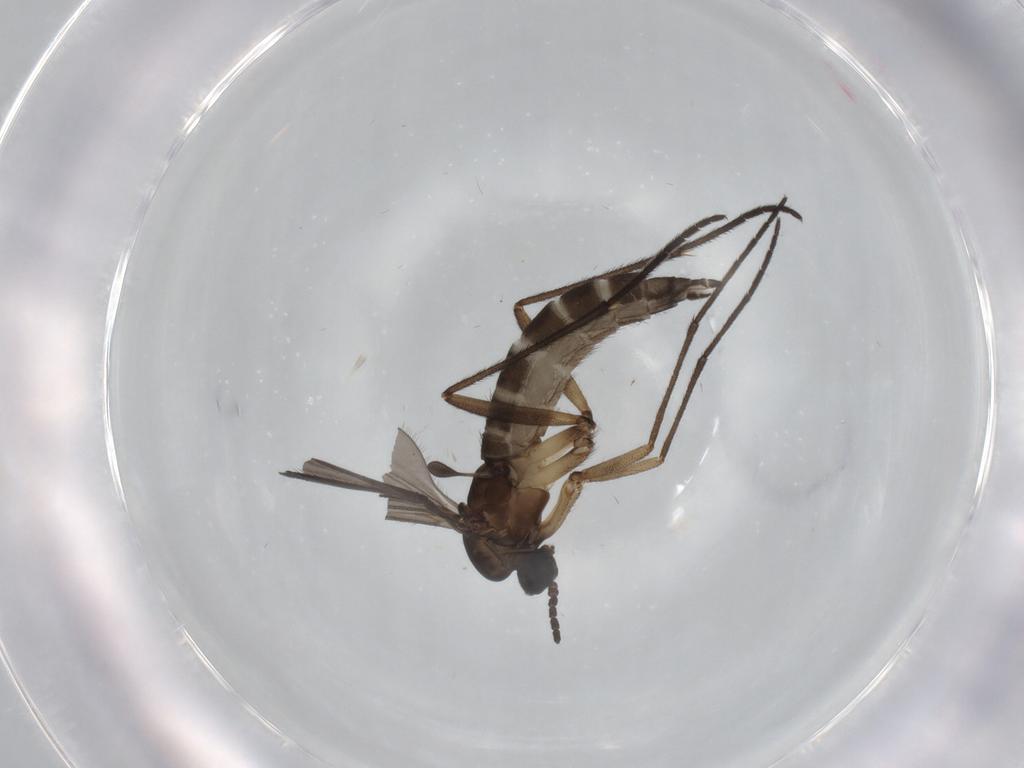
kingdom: Animalia
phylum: Arthropoda
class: Insecta
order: Diptera
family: Sciaridae
